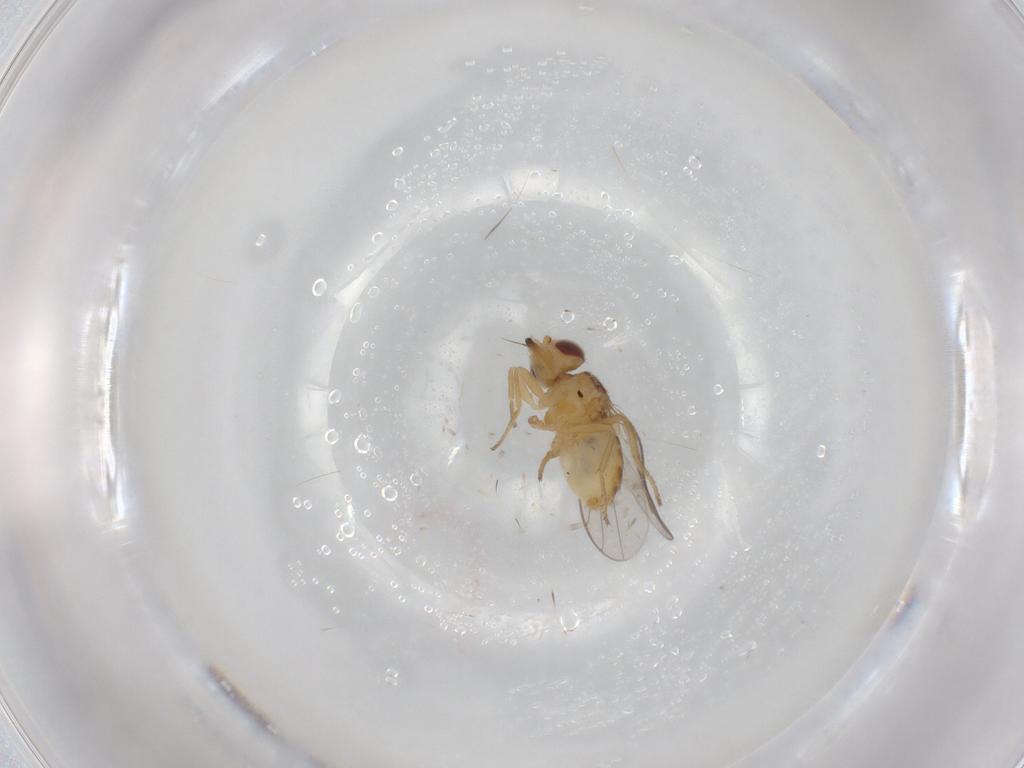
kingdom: Animalia
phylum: Arthropoda
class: Insecta
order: Diptera
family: Chloropidae
